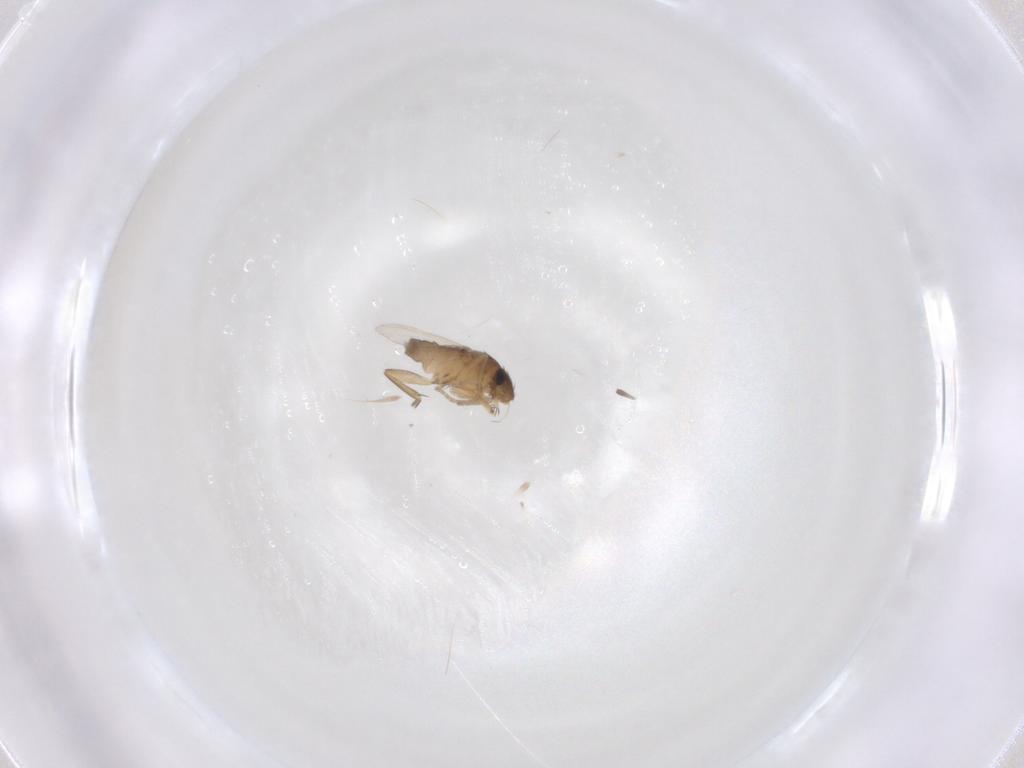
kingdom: Animalia
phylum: Arthropoda
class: Insecta
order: Diptera
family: Phoridae
